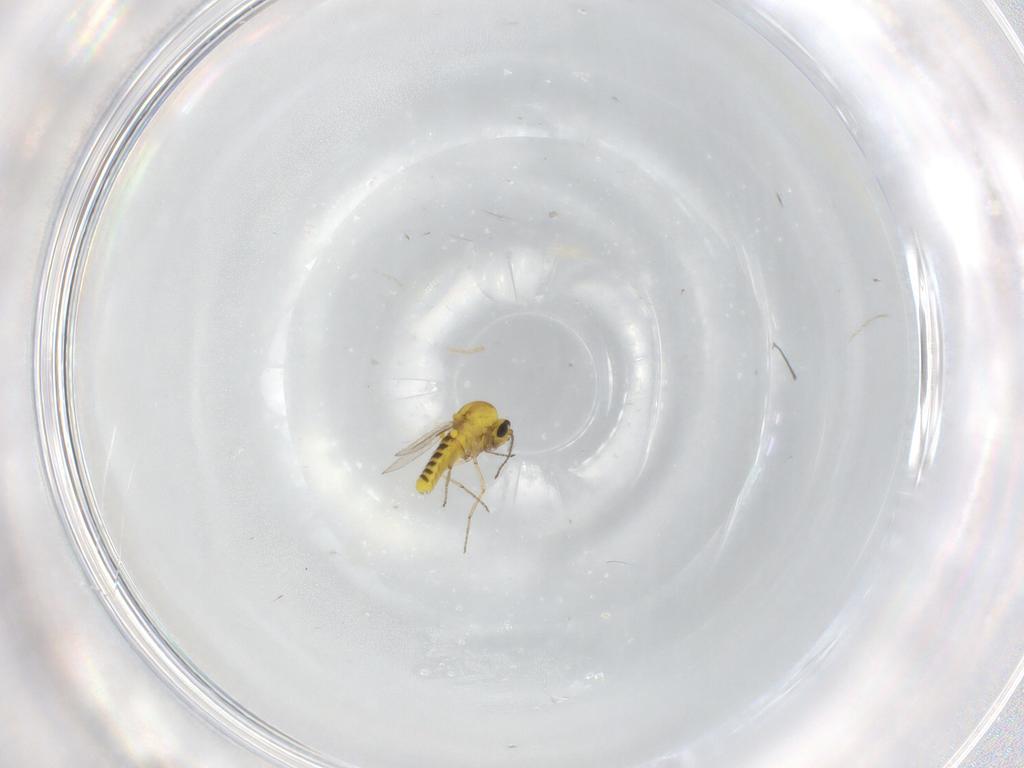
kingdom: Animalia
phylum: Arthropoda
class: Insecta
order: Diptera
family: Ceratopogonidae
